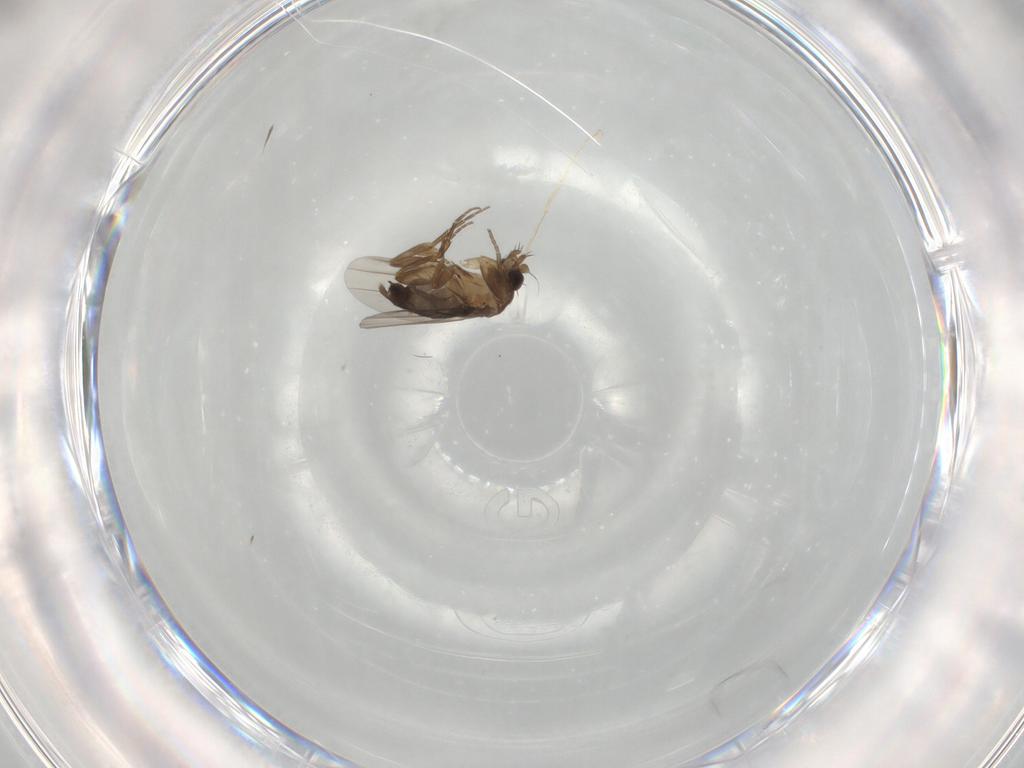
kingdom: Animalia
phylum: Arthropoda
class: Insecta
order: Diptera
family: Phoridae
